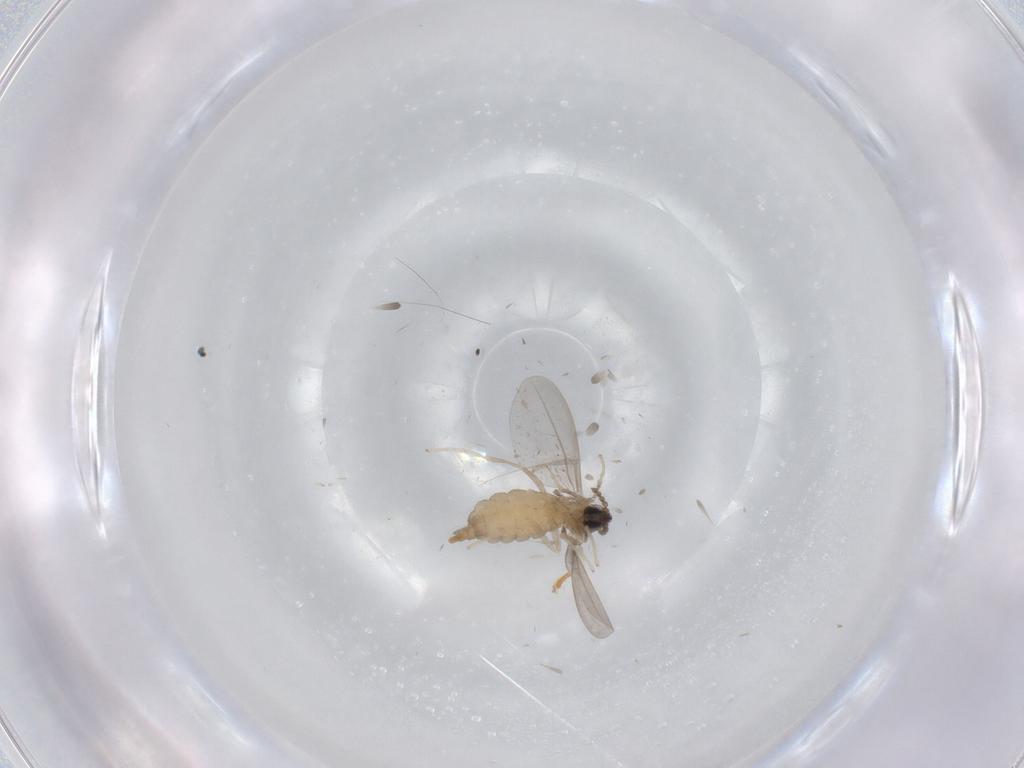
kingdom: Animalia
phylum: Arthropoda
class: Insecta
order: Diptera
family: Cecidomyiidae
